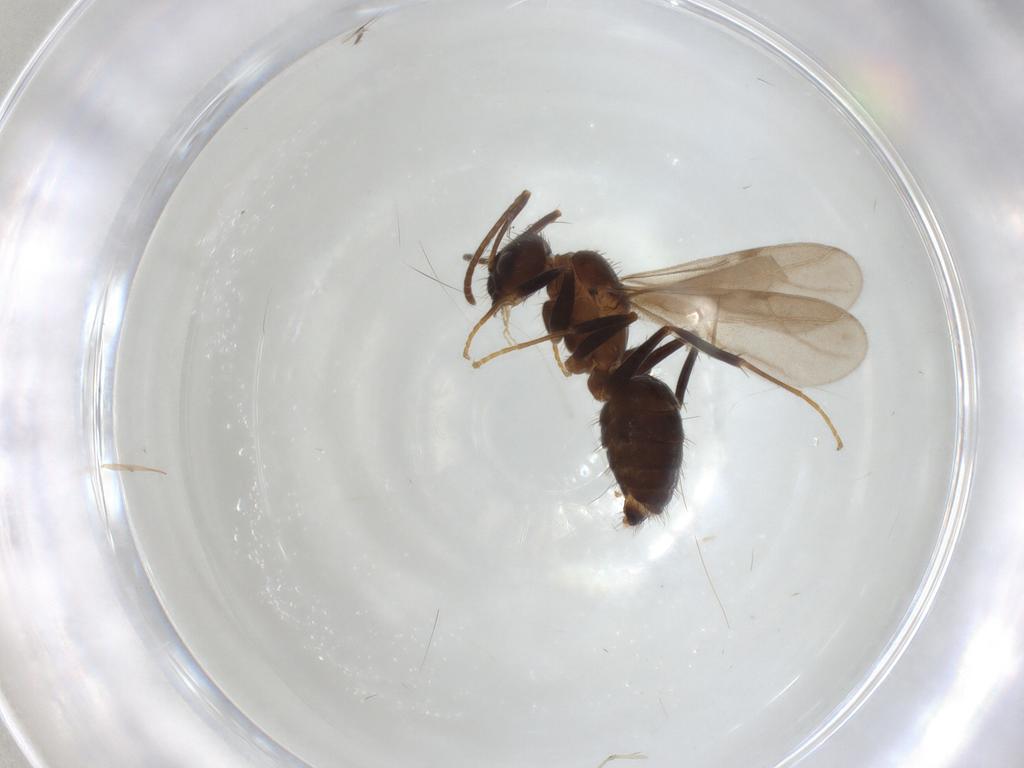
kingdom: Animalia
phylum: Arthropoda
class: Insecta
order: Hymenoptera
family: Formicidae
